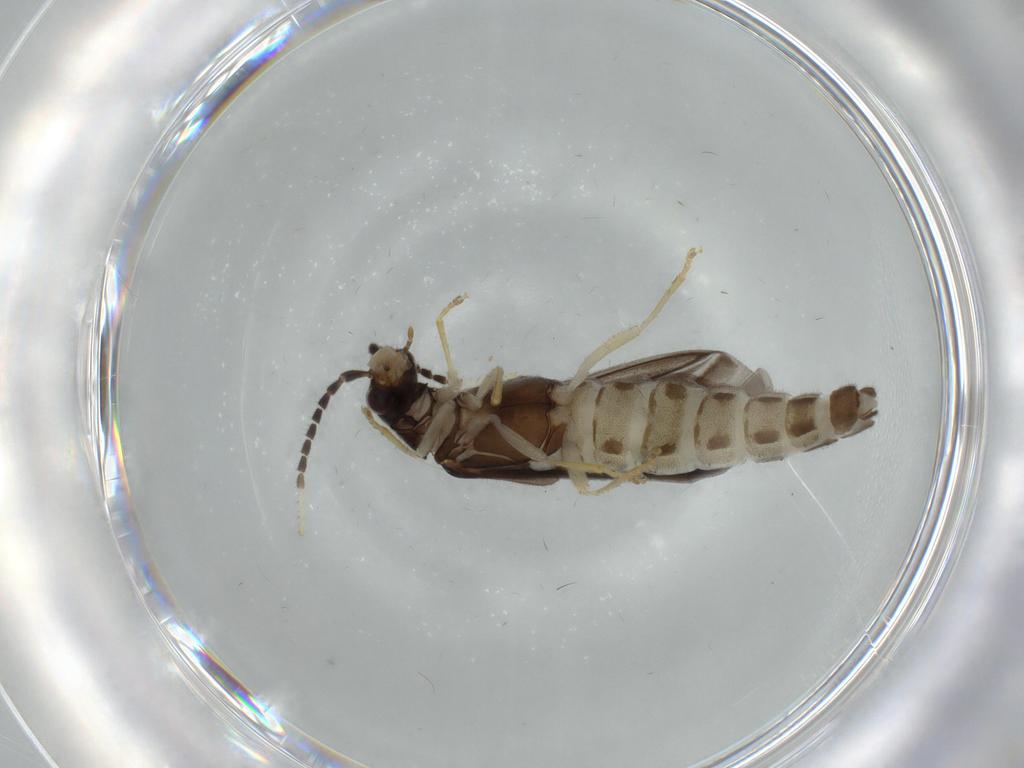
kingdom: Animalia
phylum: Arthropoda
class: Insecta
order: Coleoptera
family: Cantharidae
